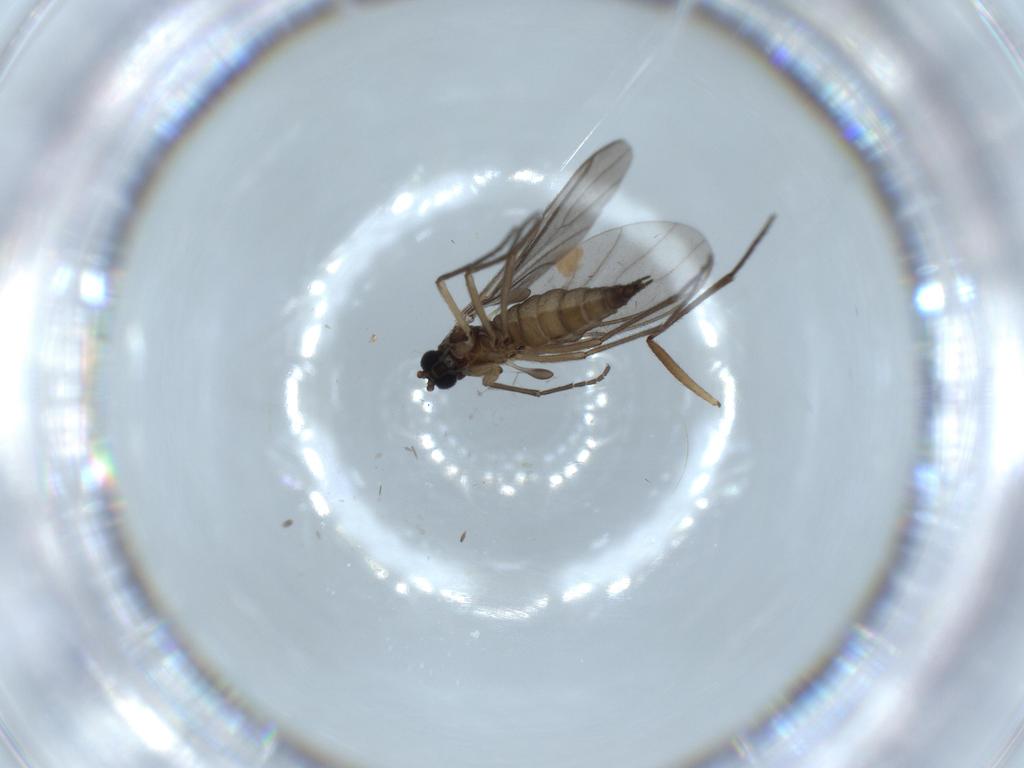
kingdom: Animalia
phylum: Arthropoda
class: Insecta
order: Diptera
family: Sciaridae
